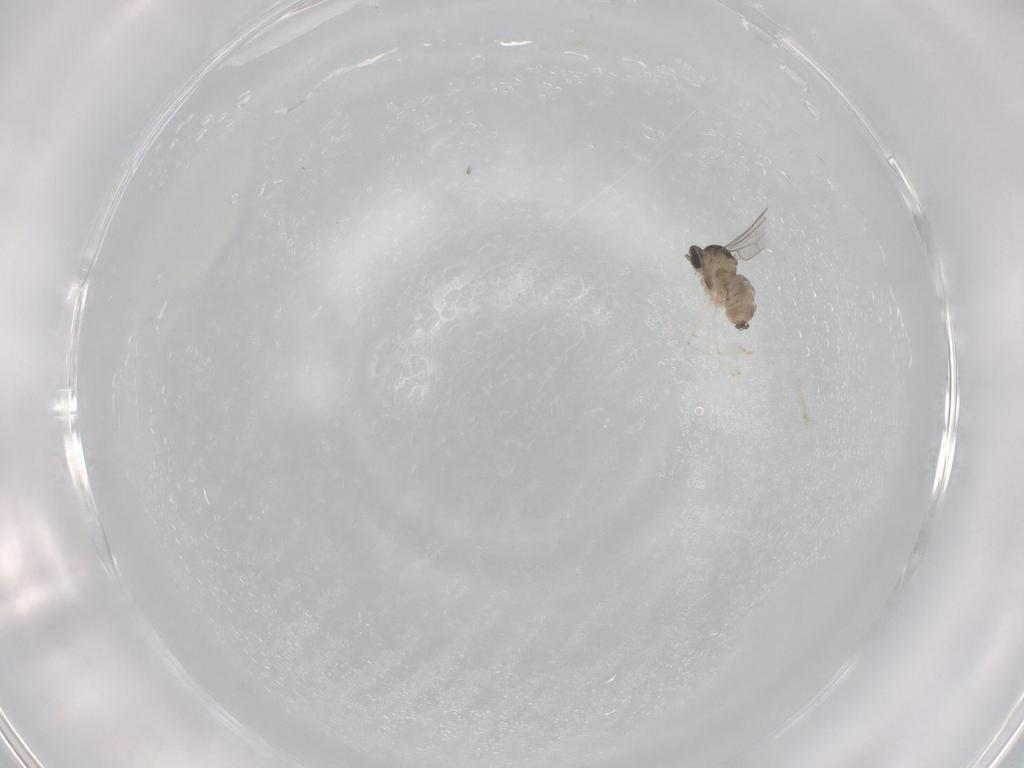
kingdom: Animalia
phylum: Arthropoda
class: Insecta
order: Diptera
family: Cecidomyiidae
